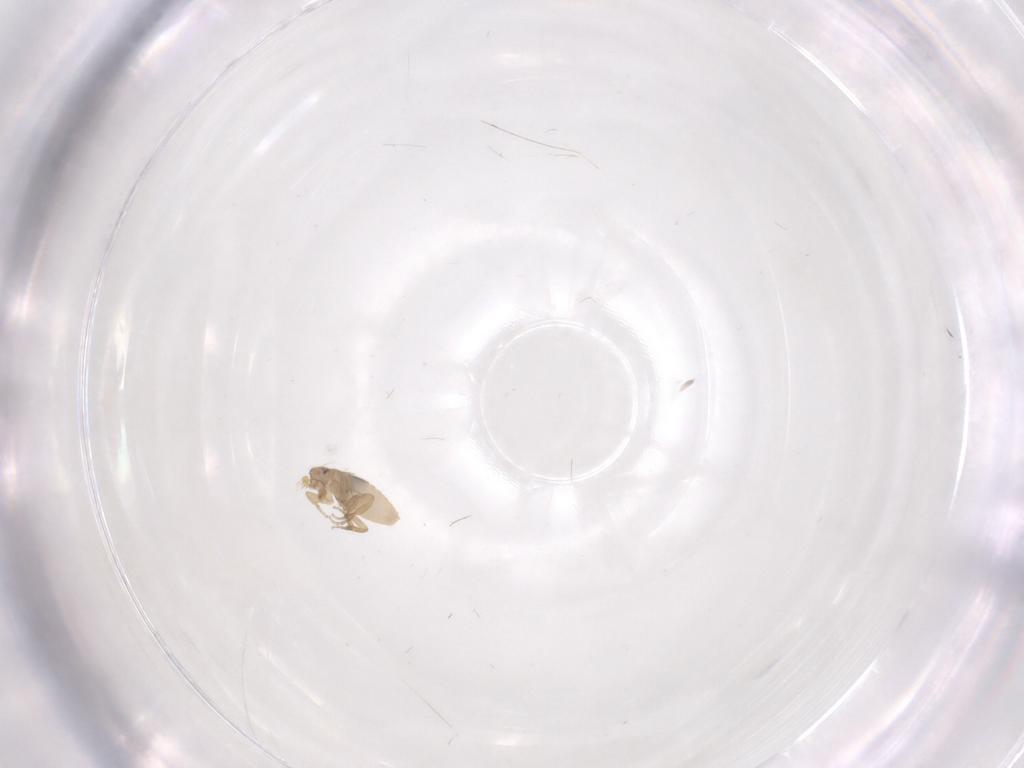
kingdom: Animalia
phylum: Arthropoda
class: Insecta
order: Diptera
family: Phoridae
